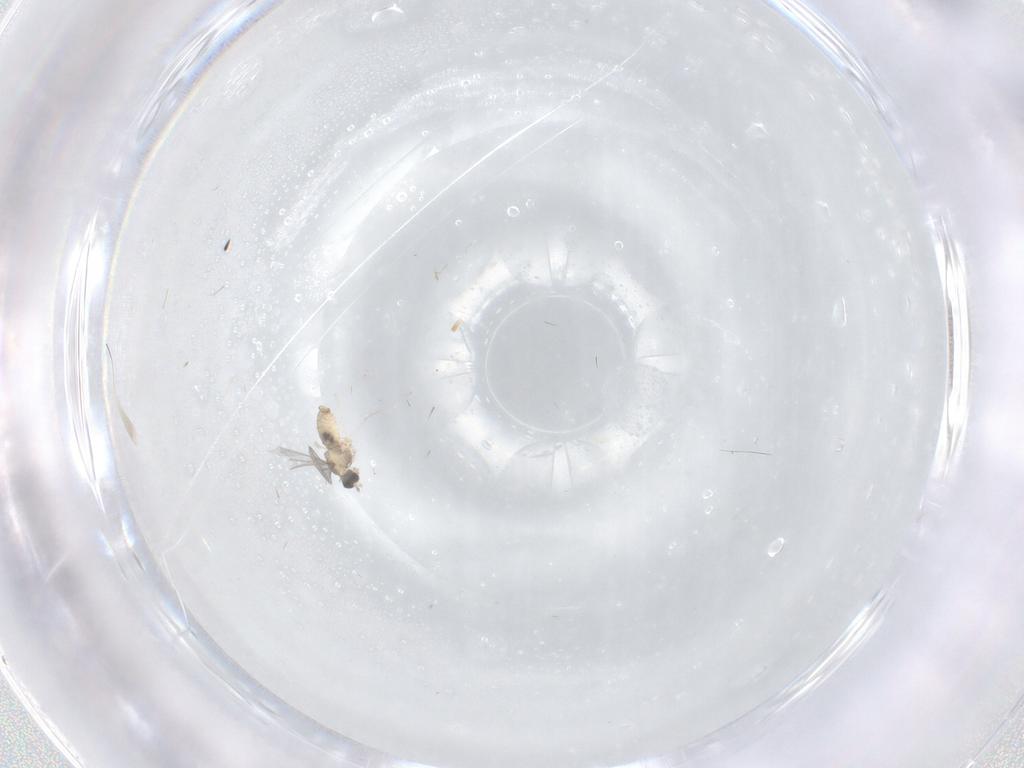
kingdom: Animalia
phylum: Arthropoda
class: Insecta
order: Diptera
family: Cecidomyiidae
